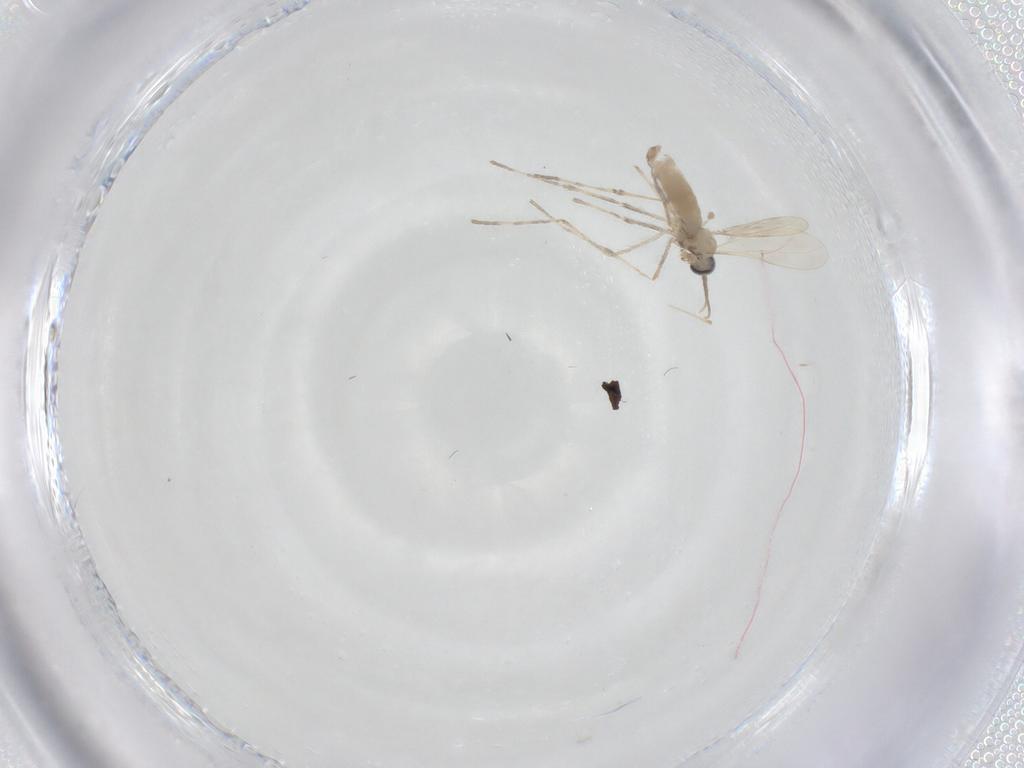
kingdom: Animalia
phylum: Arthropoda
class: Insecta
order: Diptera
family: Cecidomyiidae
